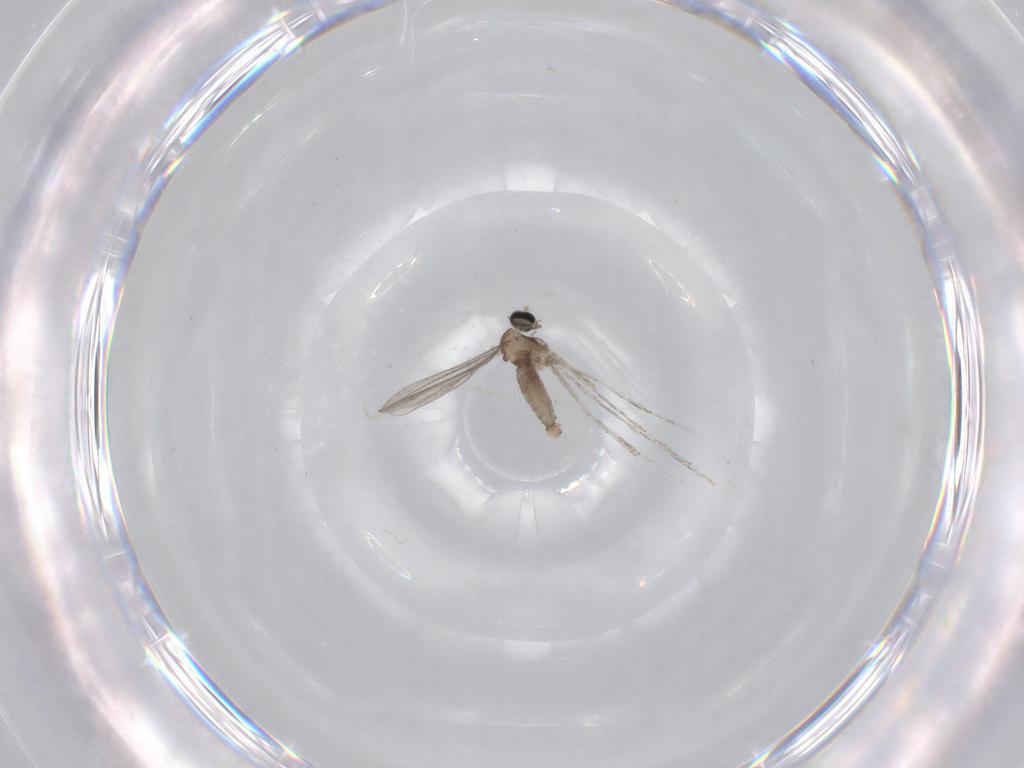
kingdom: Animalia
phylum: Arthropoda
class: Insecta
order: Diptera
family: Cecidomyiidae
